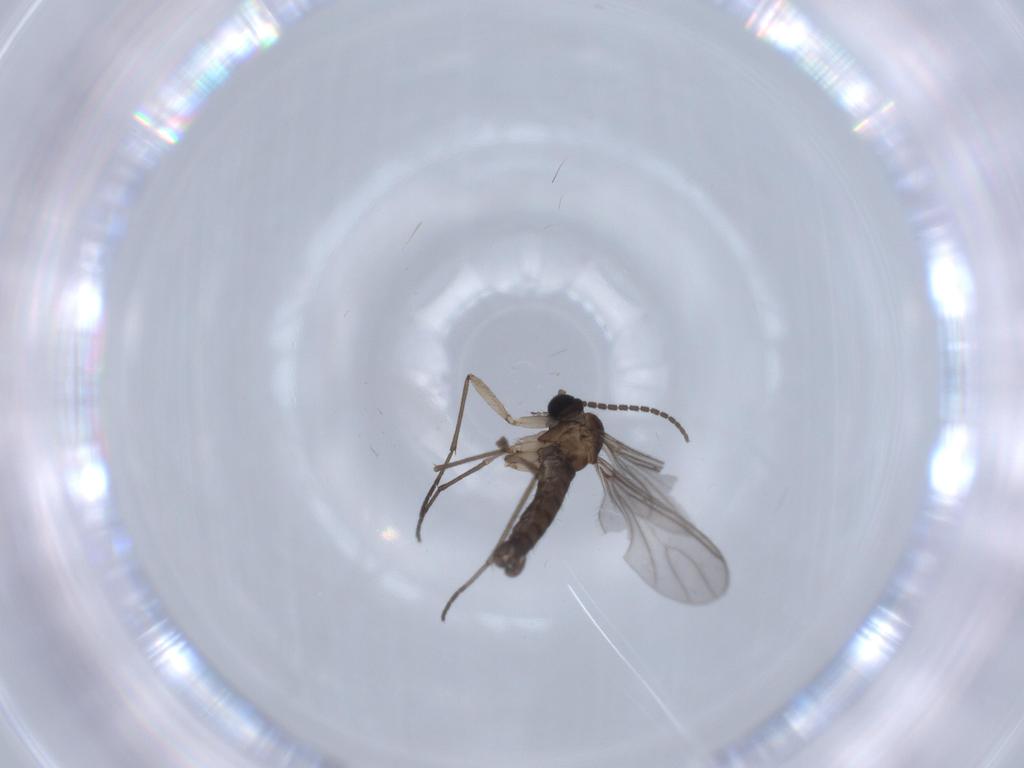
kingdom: Animalia
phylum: Arthropoda
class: Insecta
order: Diptera
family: Sciaridae
